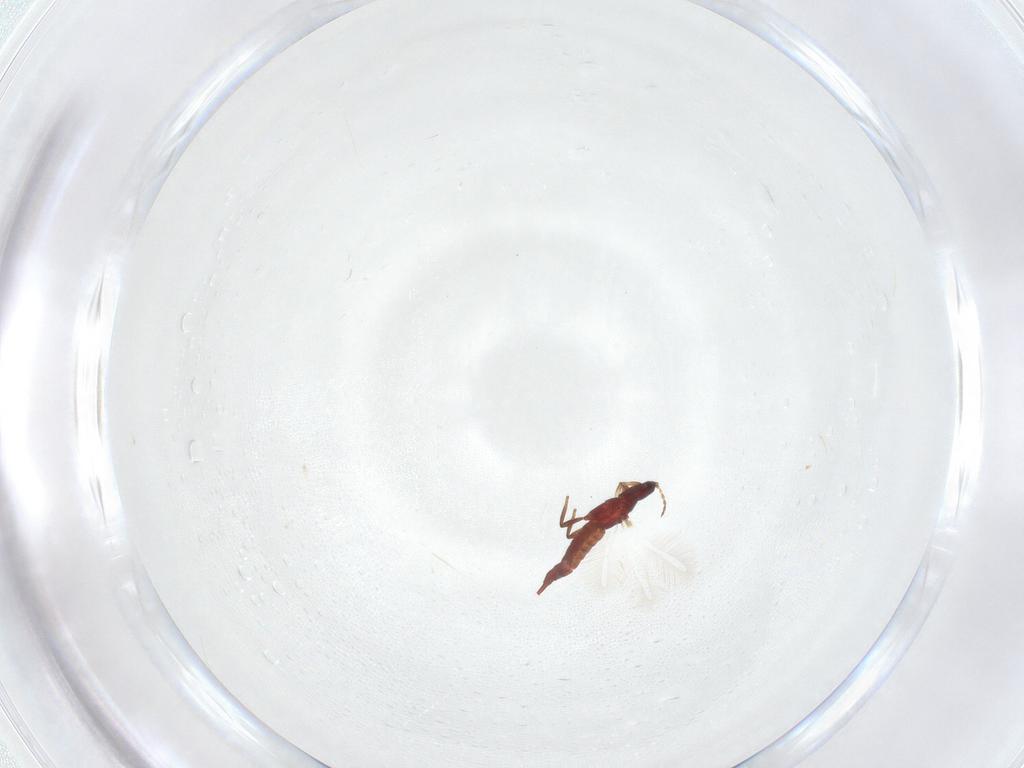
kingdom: Animalia
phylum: Arthropoda
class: Insecta
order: Thysanoptera
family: Phlaeothripidae
